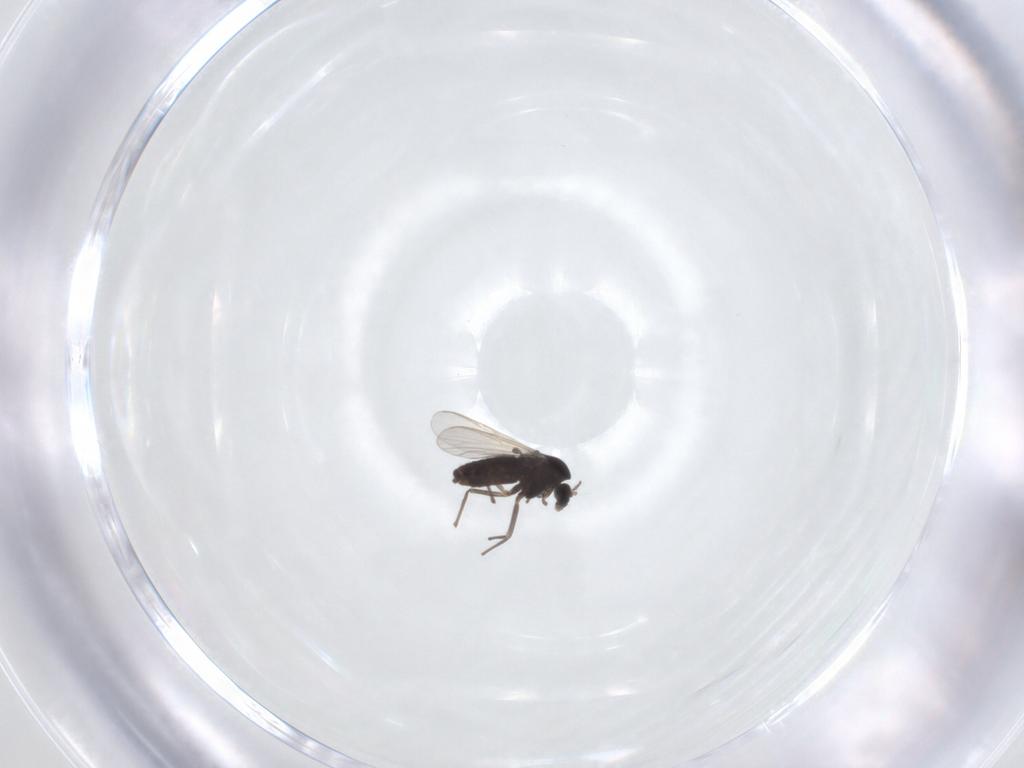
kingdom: Animalia
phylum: Arthropoda
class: Insecta
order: Diptera
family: Chironomidae
